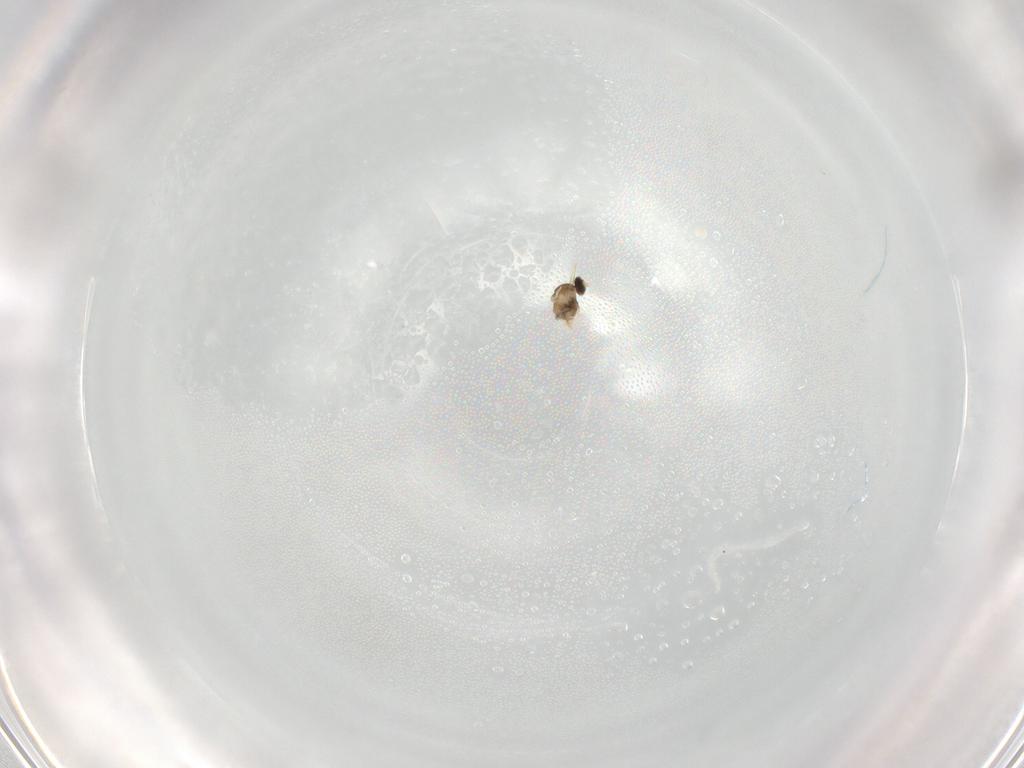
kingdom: Animalia
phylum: Arthropoda
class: Insecta
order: Diptera
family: Cecidomyiidae
